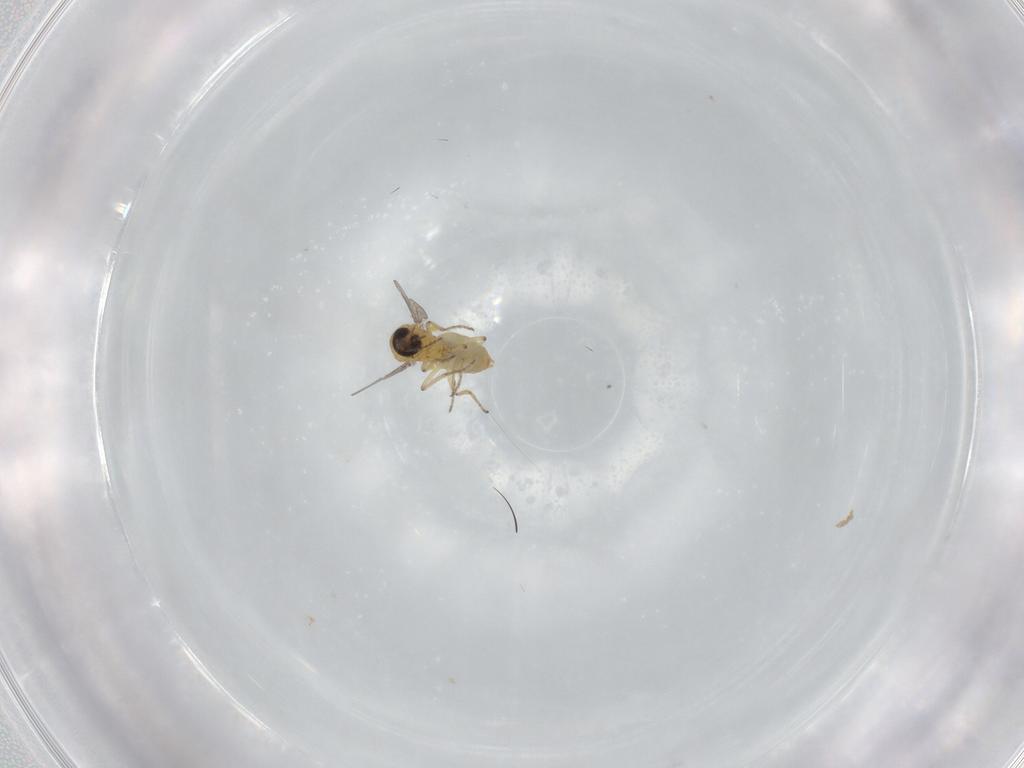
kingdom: Animalia
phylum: Arthropoda
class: Insecta
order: Diptera
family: Ceratopogonidae
